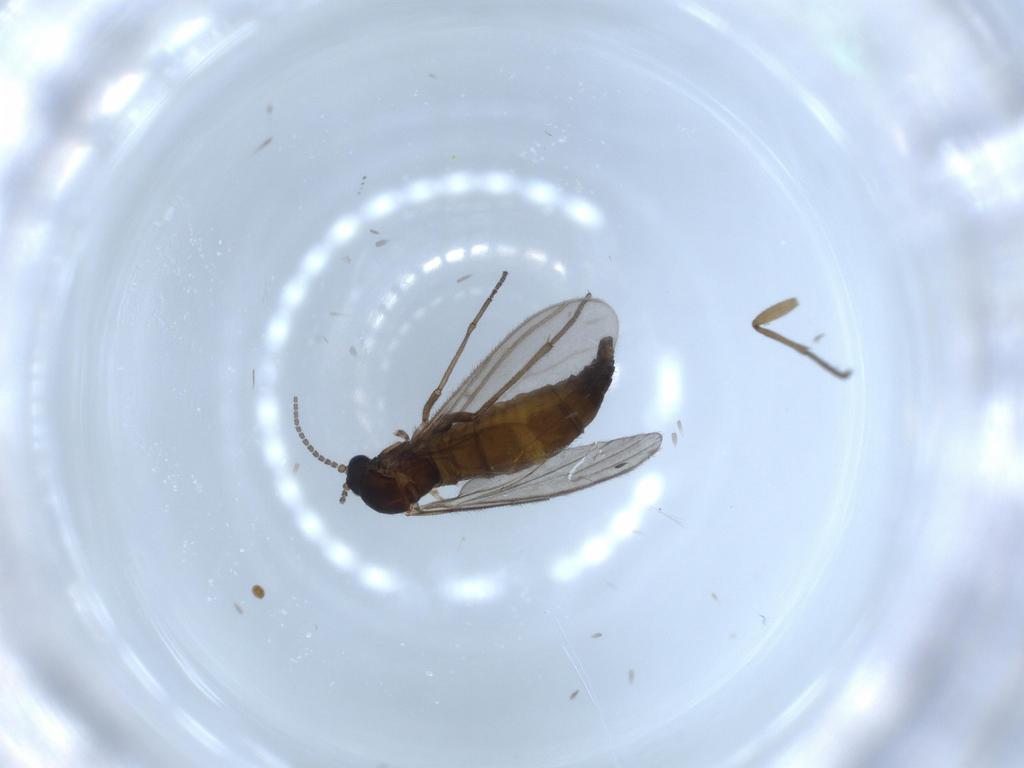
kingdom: Animalia
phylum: Arthropoda
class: Insecta
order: Diptera
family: Sciaridae
